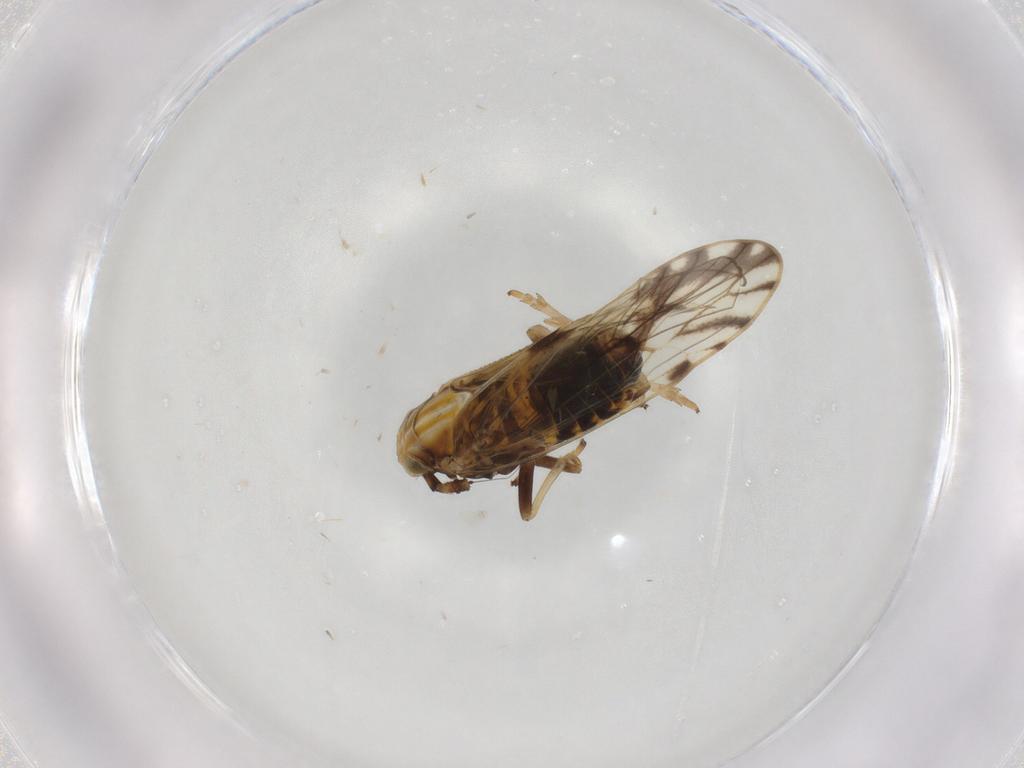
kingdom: Animalia
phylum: Arthropoda
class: Insecta
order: Hemiptera
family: Delphacidae
